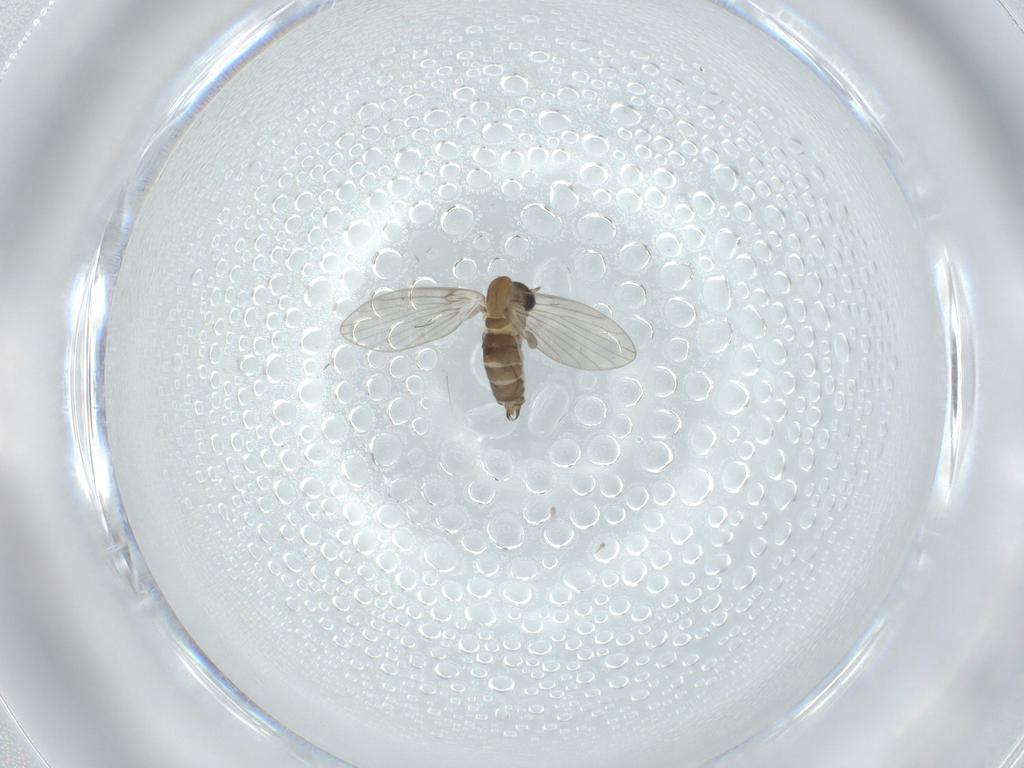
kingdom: Animalia
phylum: Arthropoda
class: Insecta
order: Diptera
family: Psychodidae
